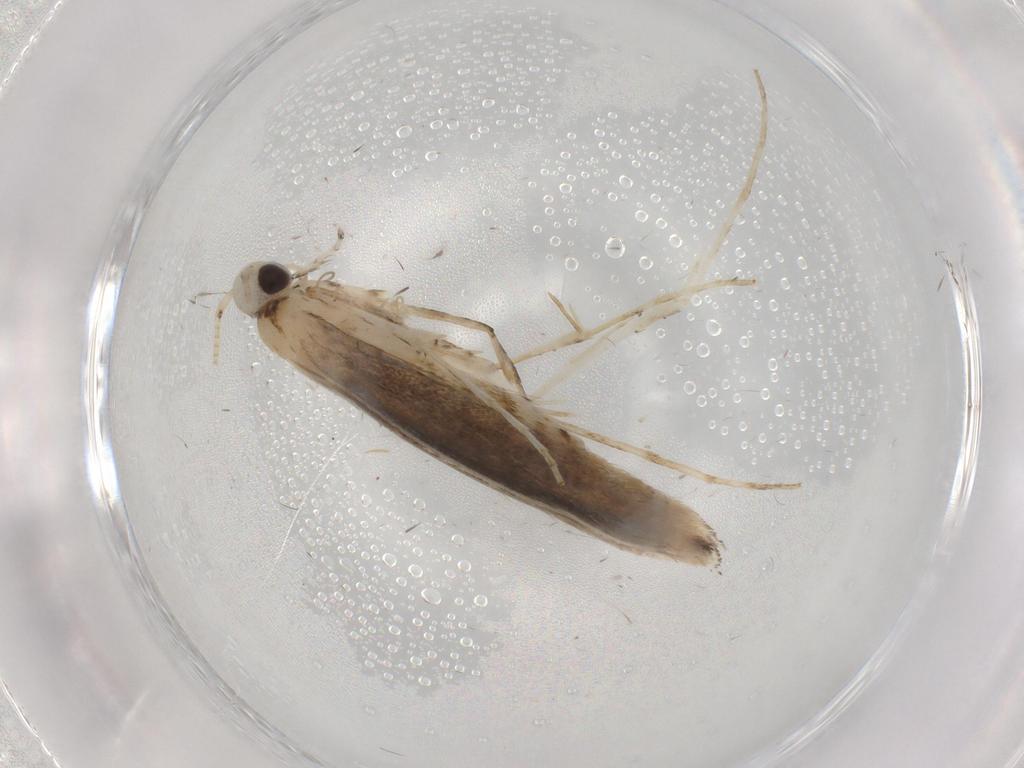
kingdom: Animalia
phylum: Arthropoda
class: Insecta
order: Lepidoptera
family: Gracillariidae
